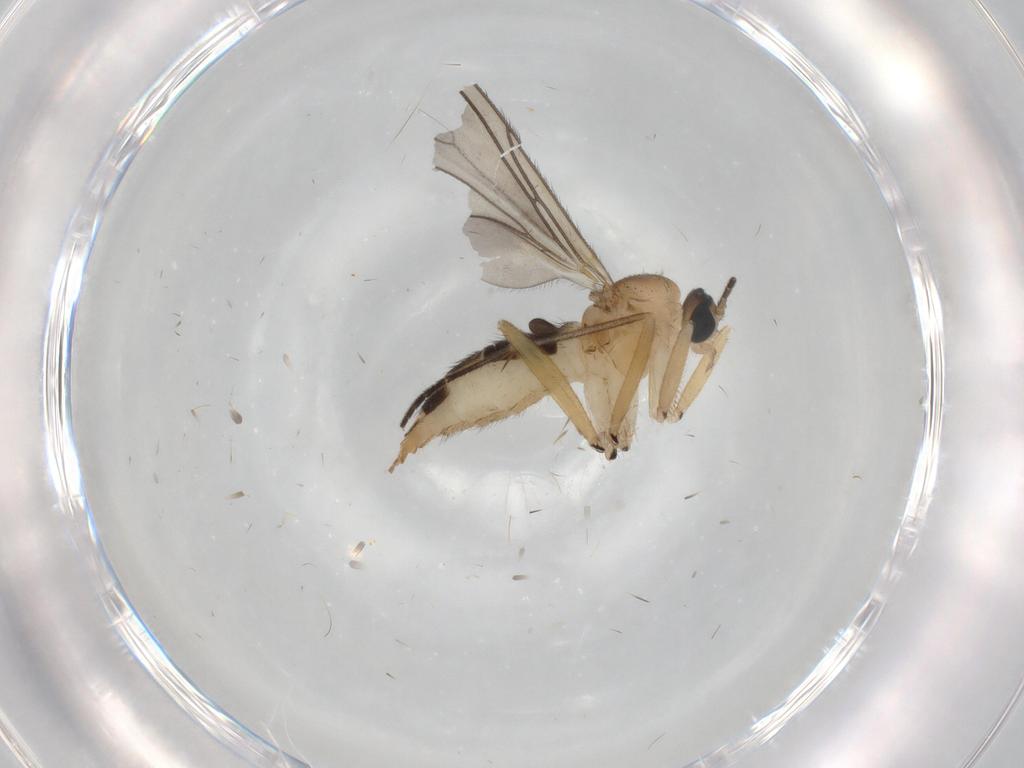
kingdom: Animalia
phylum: Arthropoda
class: Insecta
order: Diptera
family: Sciaridae
